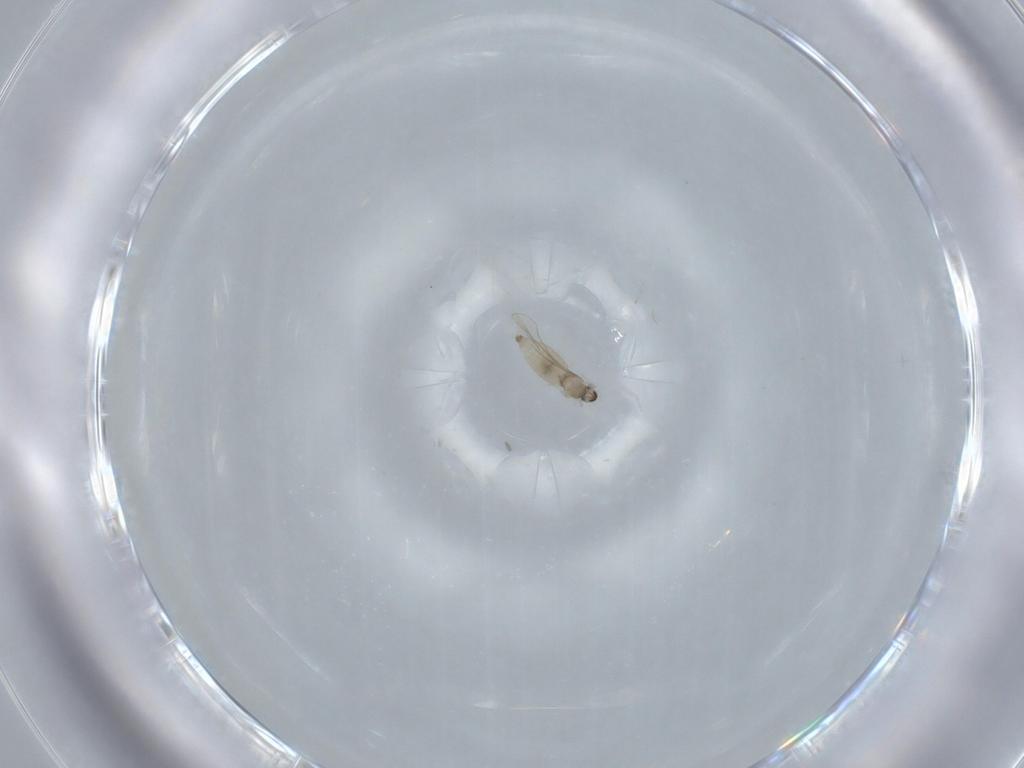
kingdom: Animalia
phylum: Arthropoda
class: Insecta
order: Diptera
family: Cecidomyiidae
